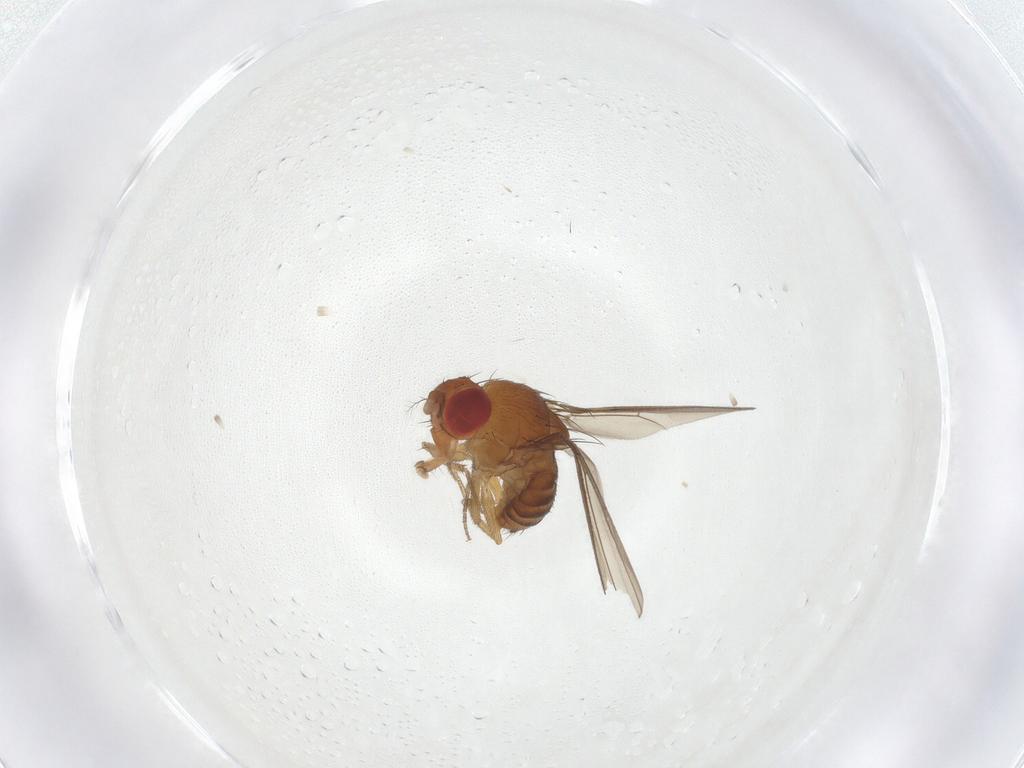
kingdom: Animalia
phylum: Arthropoda
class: Insecta
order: Diptera
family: Drosophilidae
